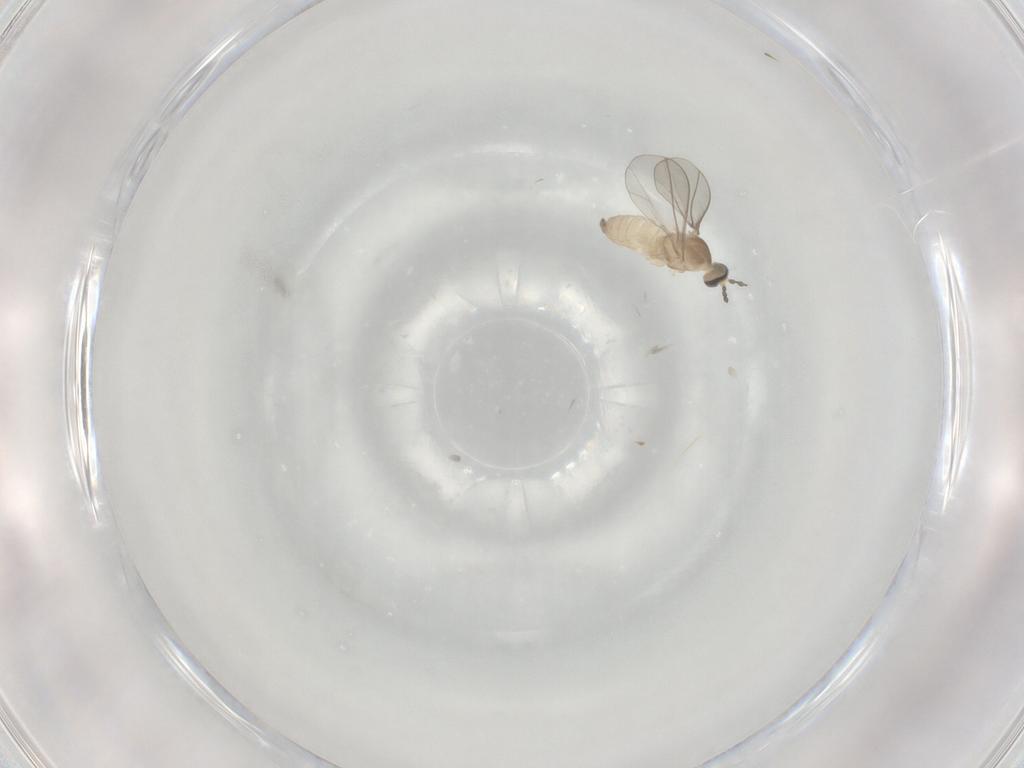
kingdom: Animalia
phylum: Arthropoda
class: Insecta
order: Diptera
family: Cecidomyiidae
